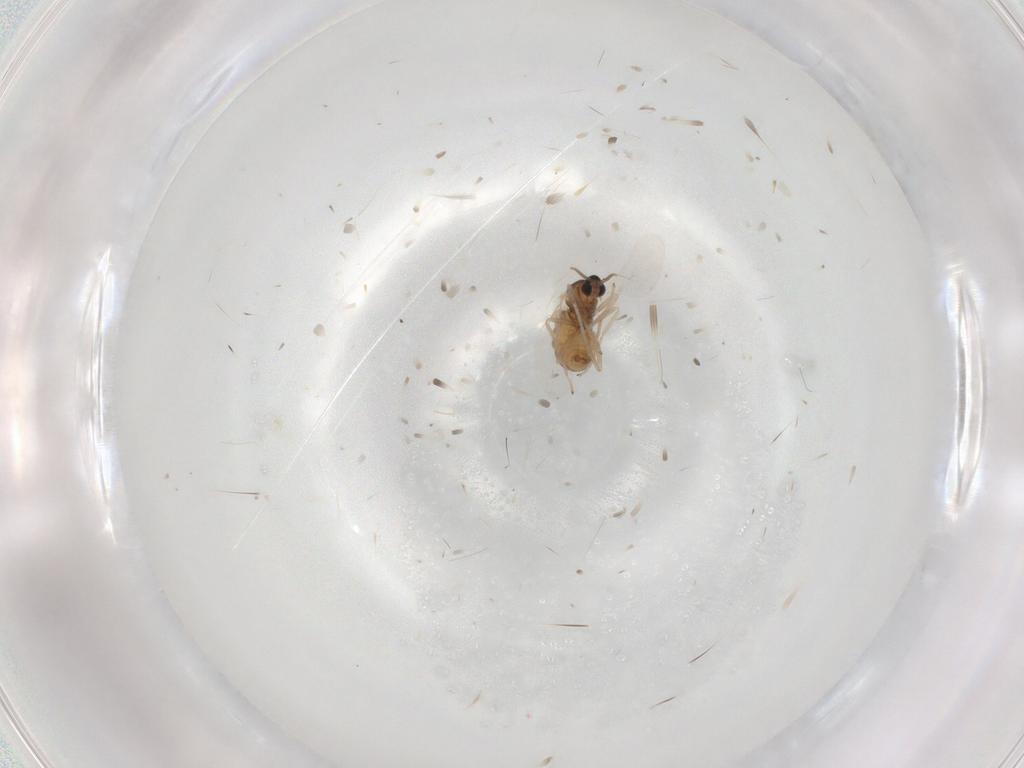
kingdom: Animalia
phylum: Arthropoda
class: Insecta
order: Diptera
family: Cecidomyiidae
